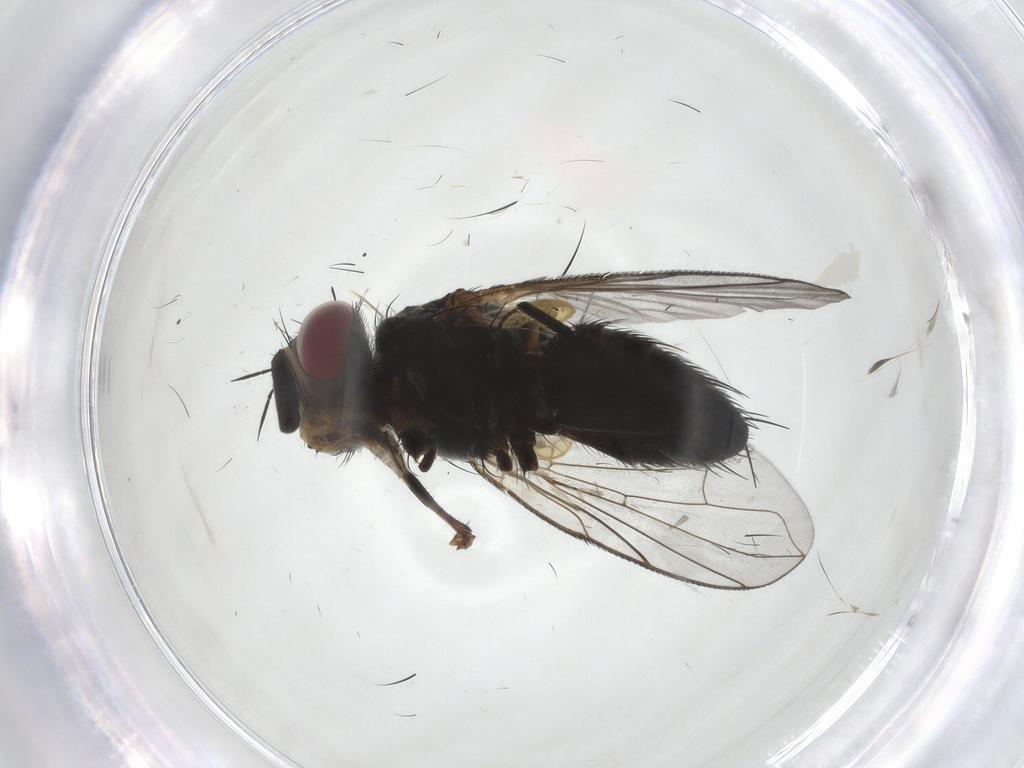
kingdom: Animalia
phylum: Arthropoda
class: Insecta
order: Diptera
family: Tachinidae
